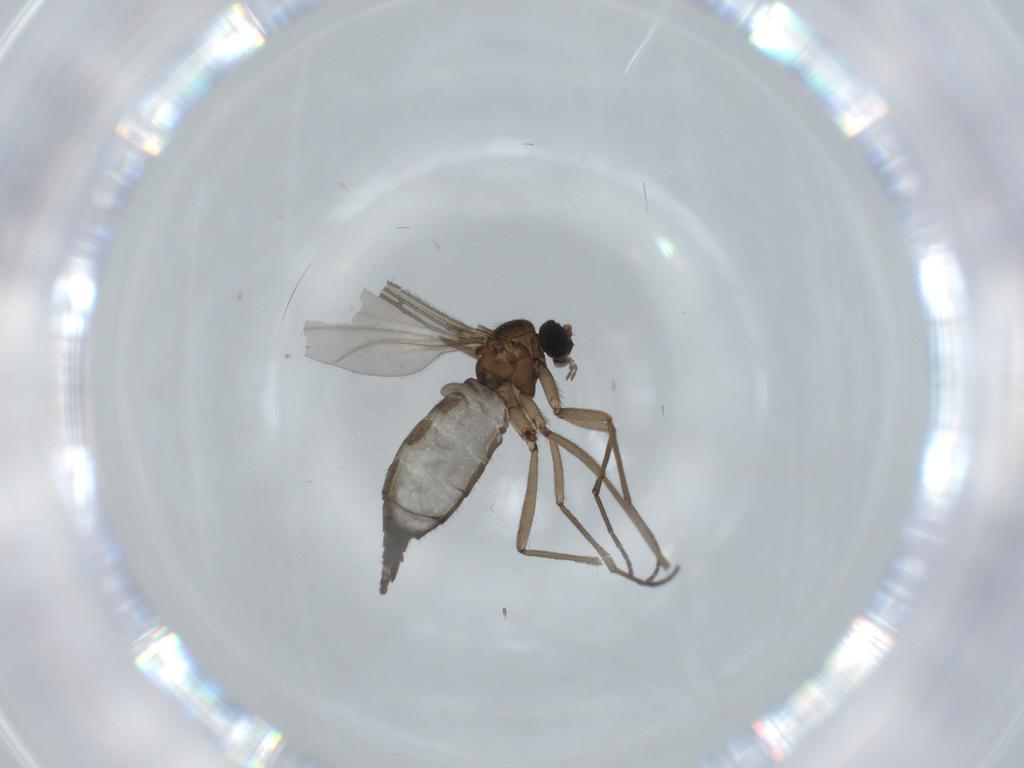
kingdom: Animalia
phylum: Arthropoda
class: Insecta
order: Diptera
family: Sciaridae
